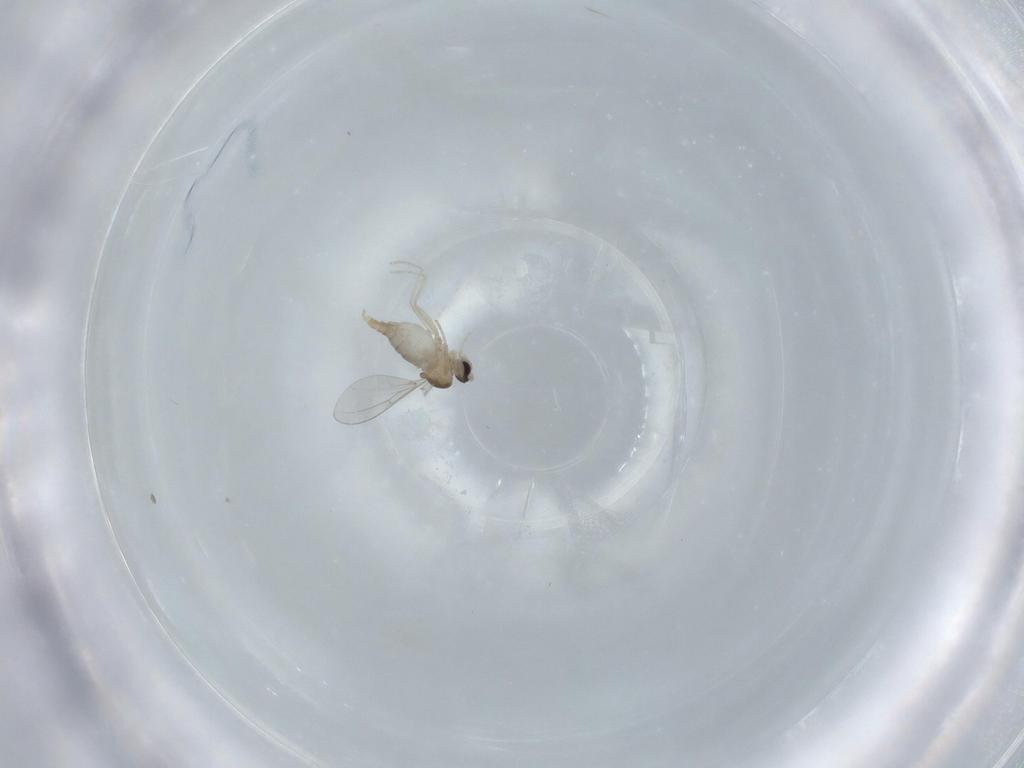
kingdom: Animalia
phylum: Arthropoda
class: Insecta
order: Diptera
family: Cecidomyiidae
